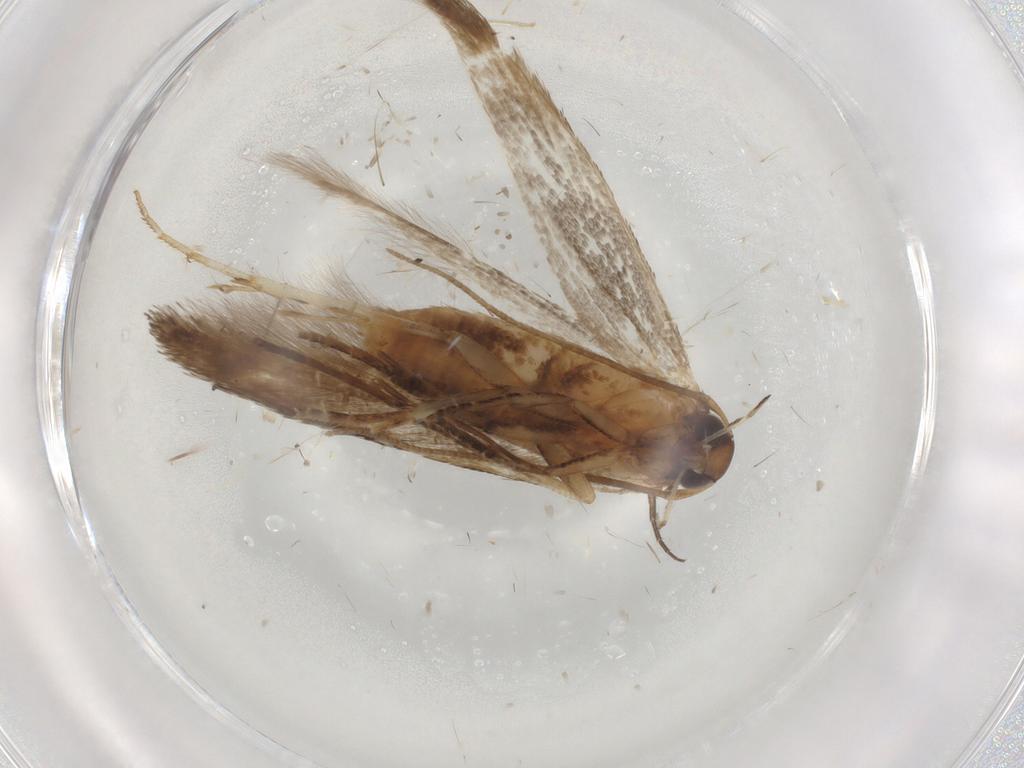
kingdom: Animalia
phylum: Arthropoda
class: Insecta
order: Lepidoptera
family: Cosmopterigidae
